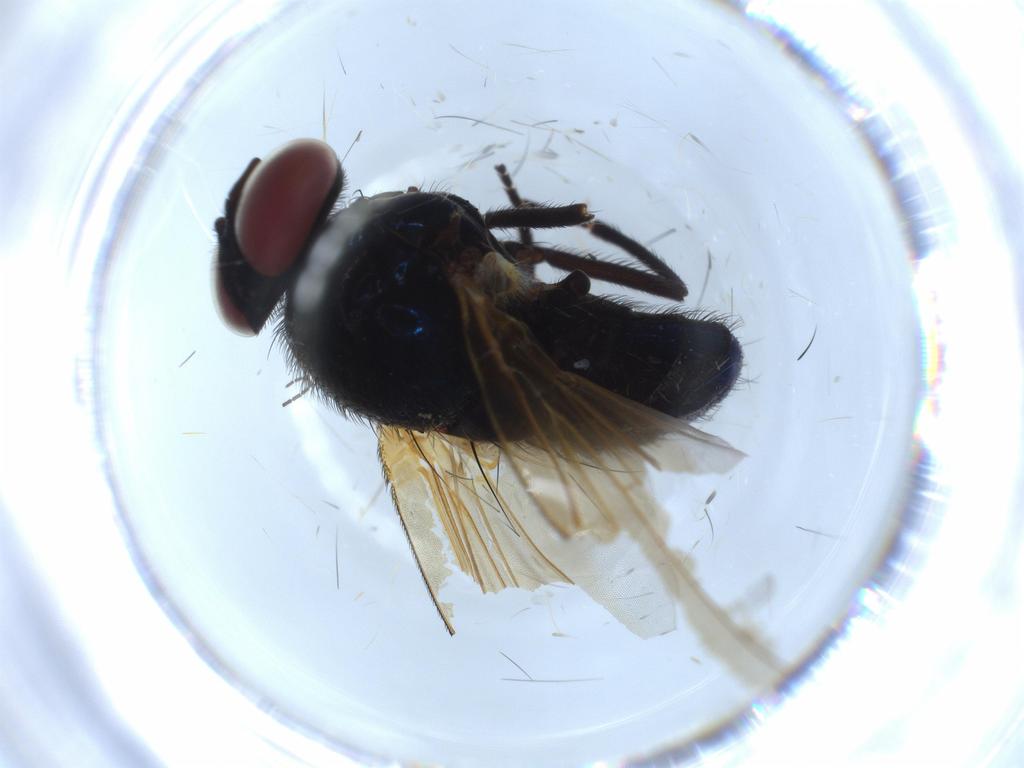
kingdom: Animalia
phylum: Arthropoda
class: Insecta
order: Diptera
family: Lonchaeidae
